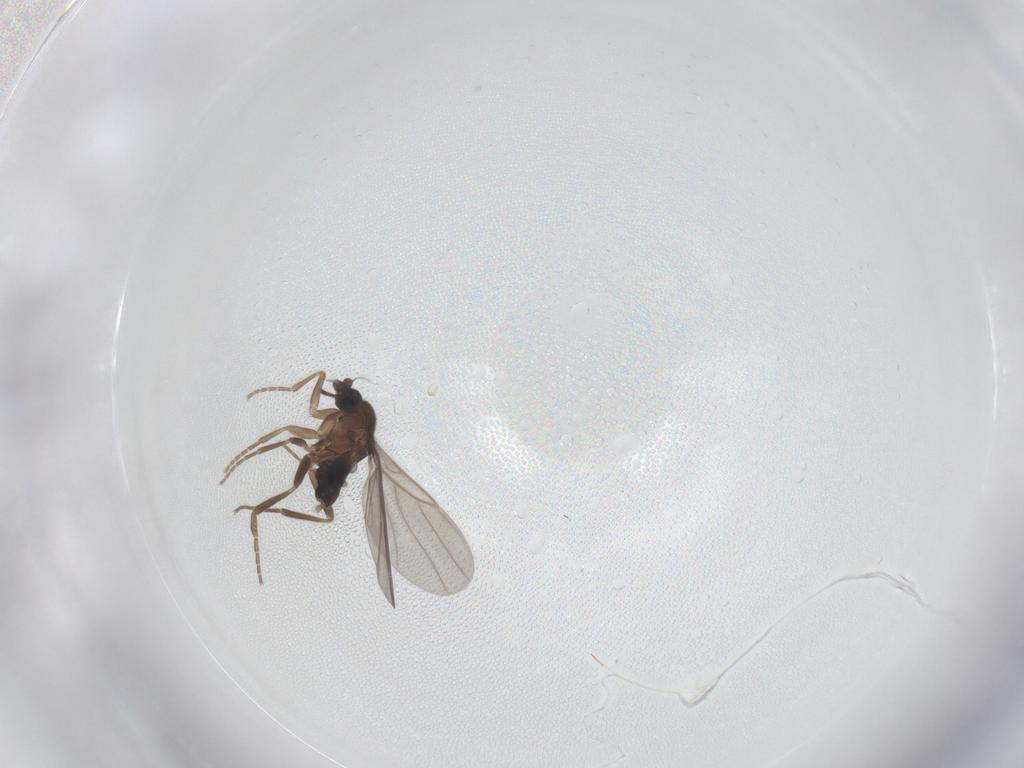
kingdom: Animalia
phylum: Arthropoda
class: Insecta
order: Diptera
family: Phoridae
